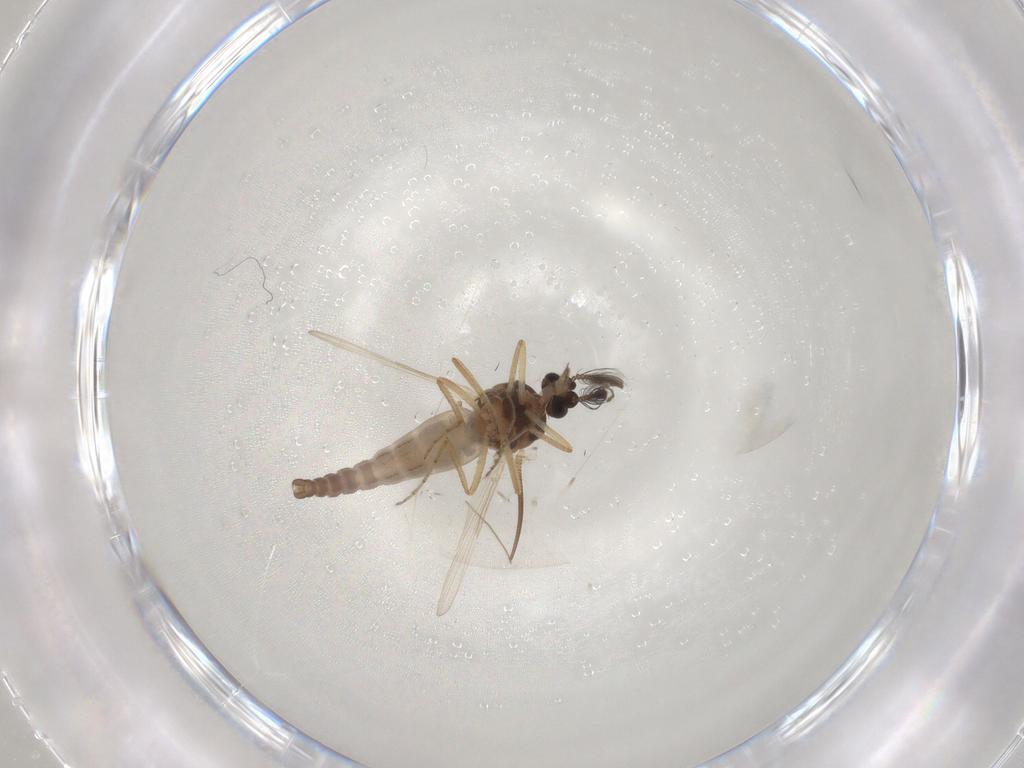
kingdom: Animalia
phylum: Arthropoda
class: Insecta
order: Diptera
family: Ceratopogonidae
